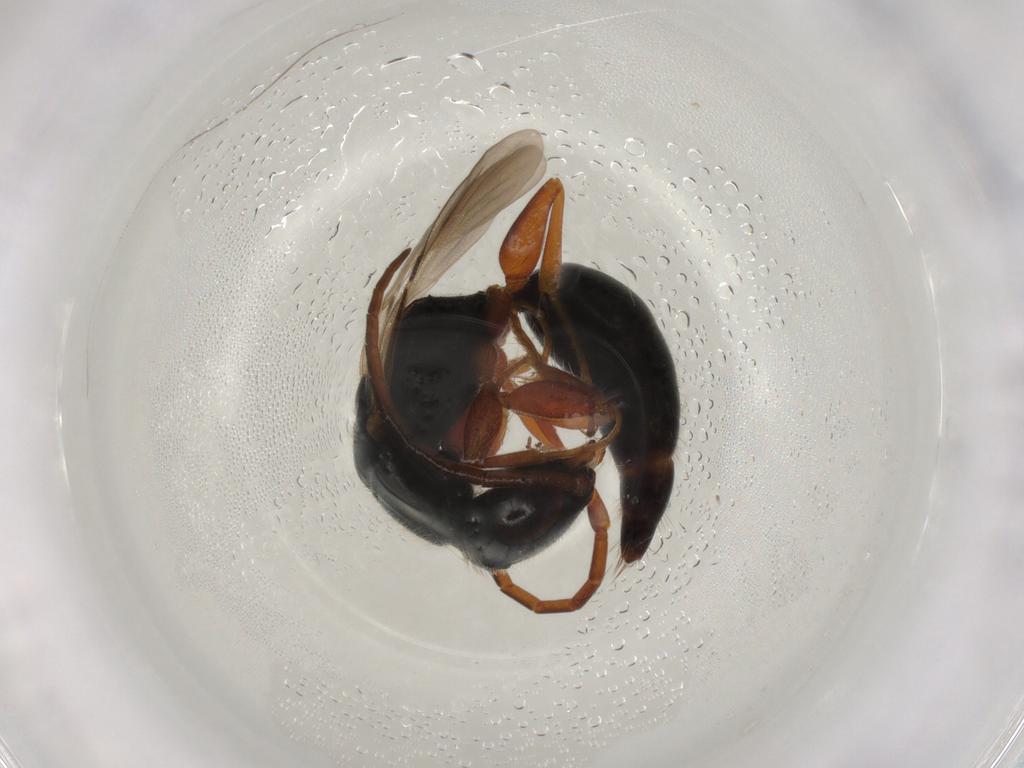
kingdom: Animalia
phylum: Arthropoda
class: Insecta
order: Hymenoptera
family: Bethylidae
